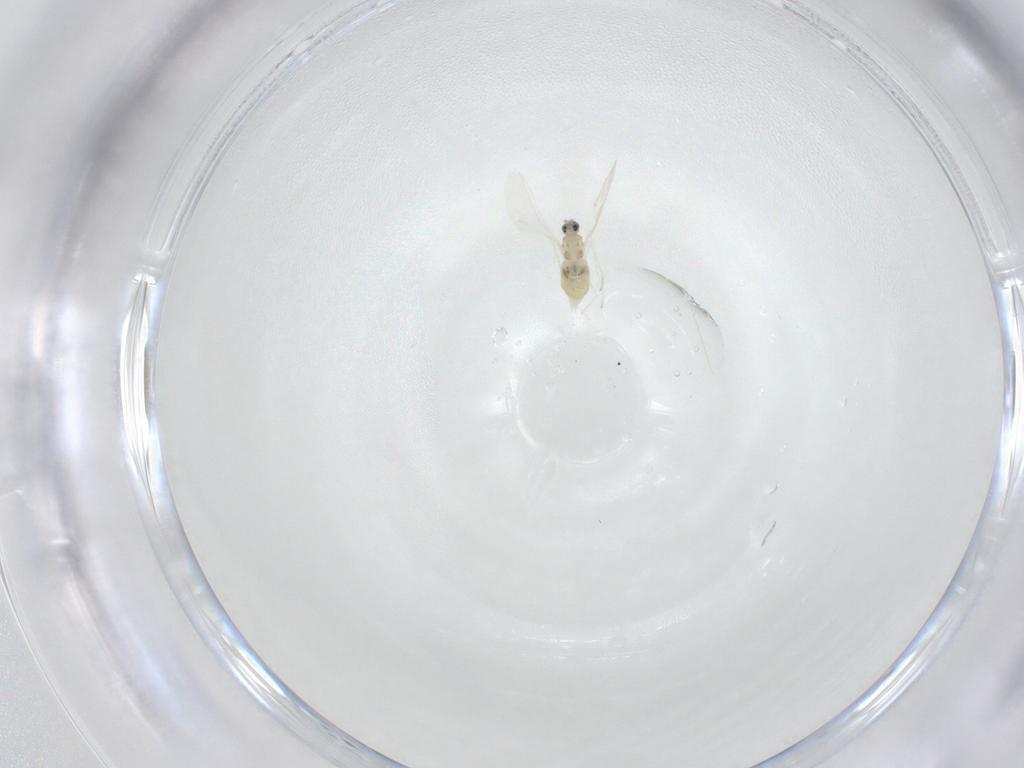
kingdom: Animalia
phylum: Arthropoda
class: Insecta
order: Diptera
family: Cecidomyiidae
